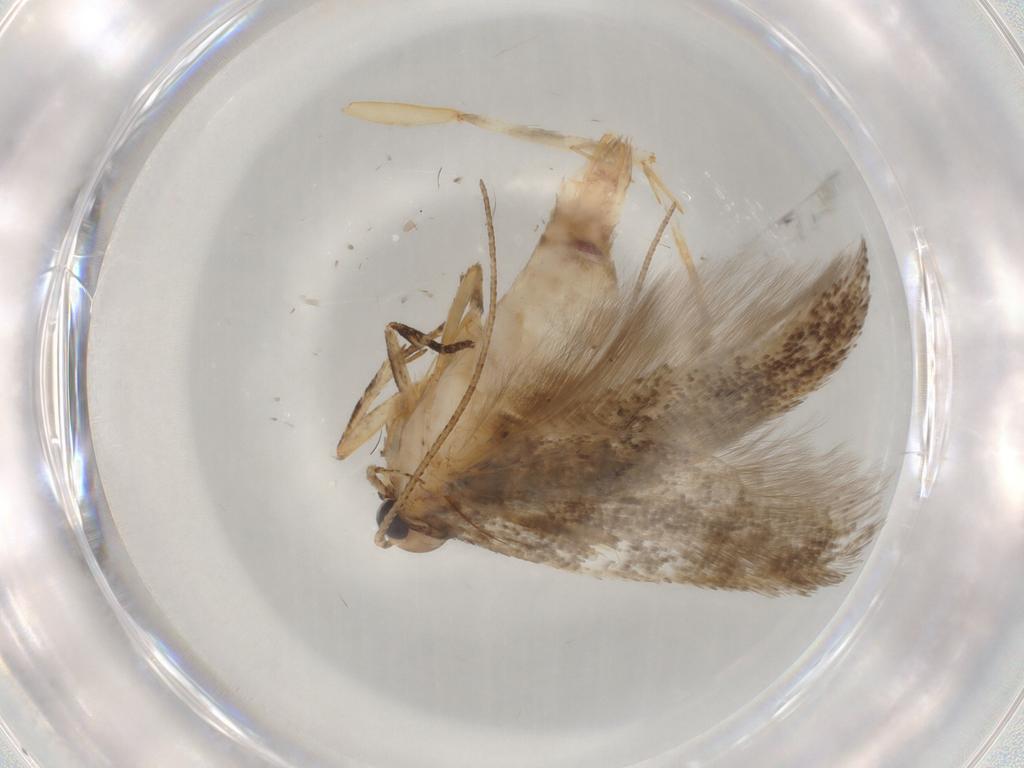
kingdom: Animalia
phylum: Arthropoda
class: Insecta
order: Lepidoptera
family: Gelechiidae
